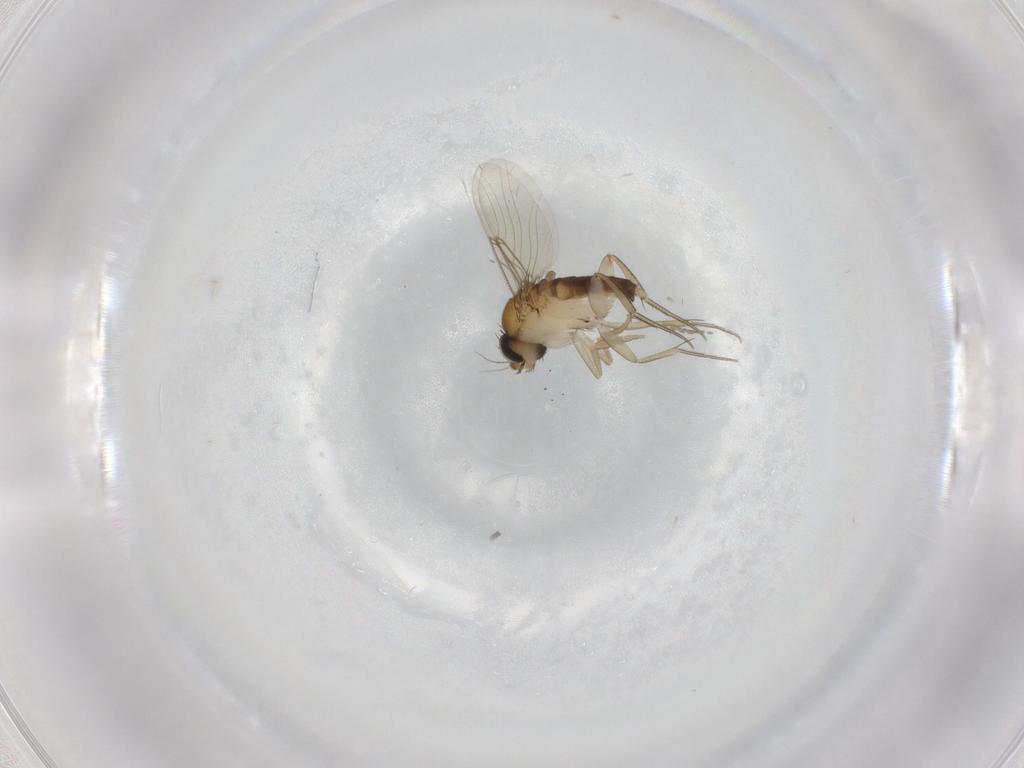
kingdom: Animalia
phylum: Arthropoda
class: Insecta
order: Diptera
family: Phoridae
